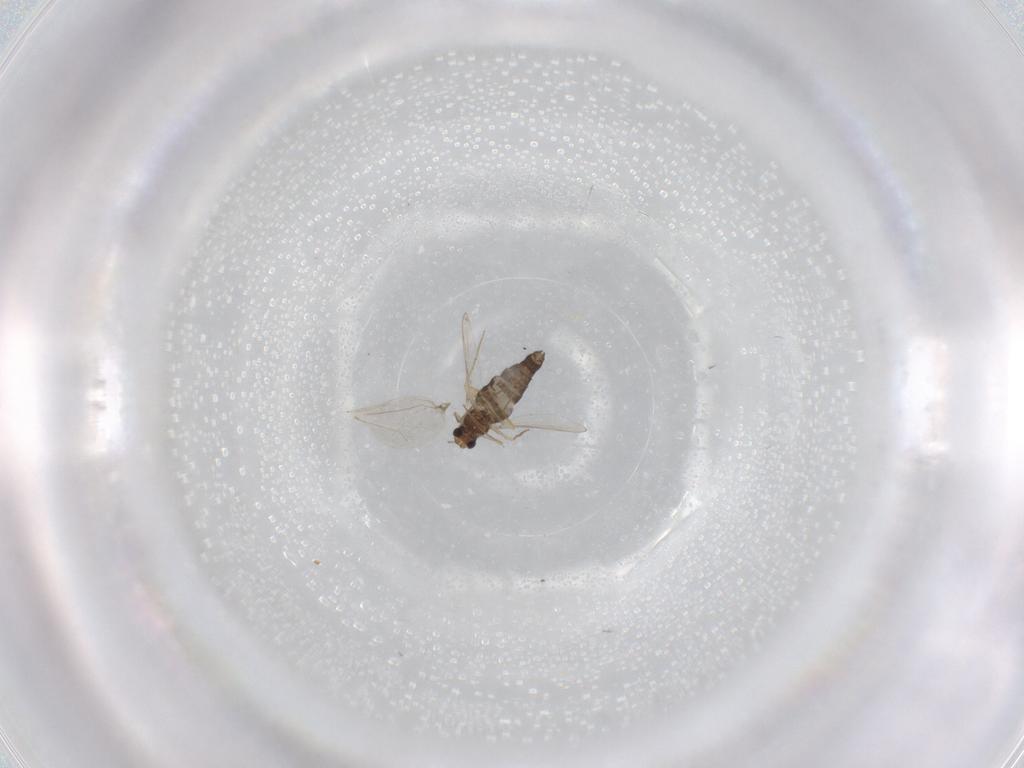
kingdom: Animalia
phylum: Arthropoda
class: Insecta
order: Diptera
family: Chironomidae
